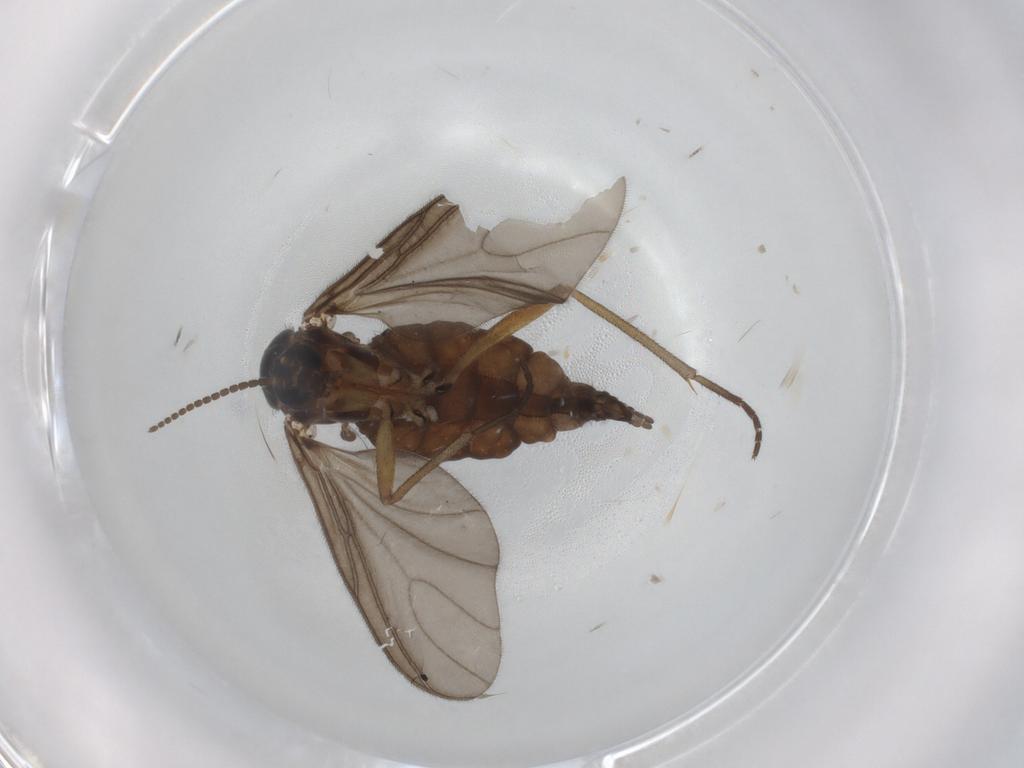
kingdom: Animalia
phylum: Arthropoda
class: Insecta
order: Diptera
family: Sciaridae
